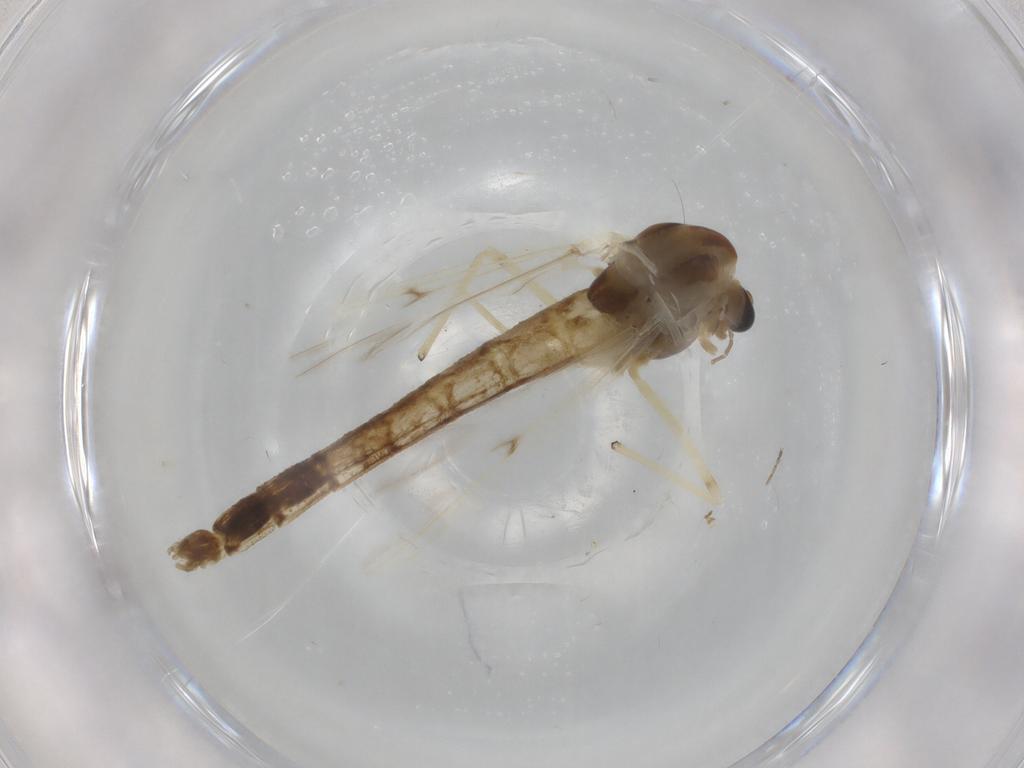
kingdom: Animalia
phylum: Arthropoda
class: Insecta
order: Diptera
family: Chironomidae
